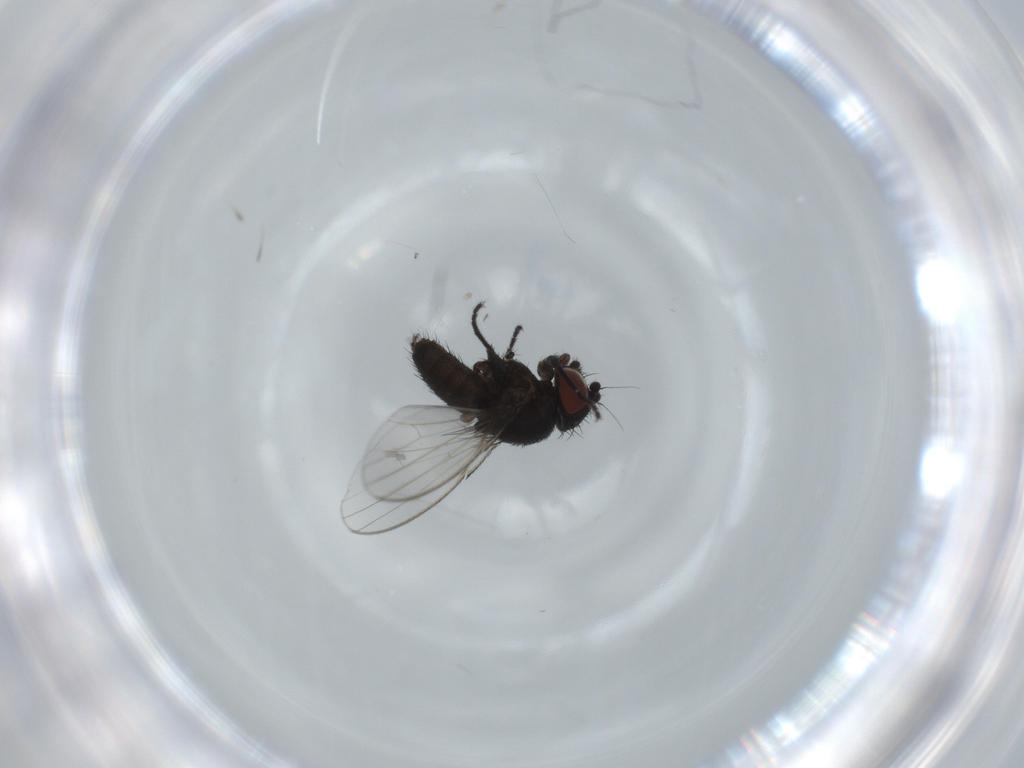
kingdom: Animalia
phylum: Arthropoda
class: Insecta
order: Diptera
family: Milichiidae
